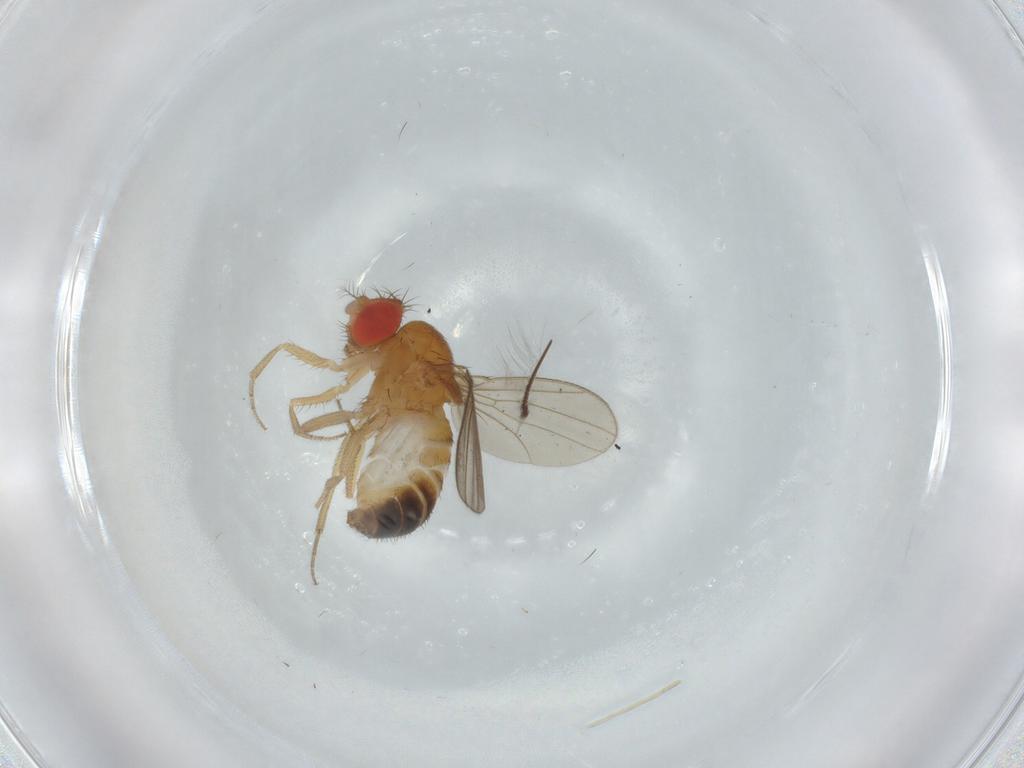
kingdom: Animalia
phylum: Arthropoda
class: Insecta
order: Diptera
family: Drosophilidae
